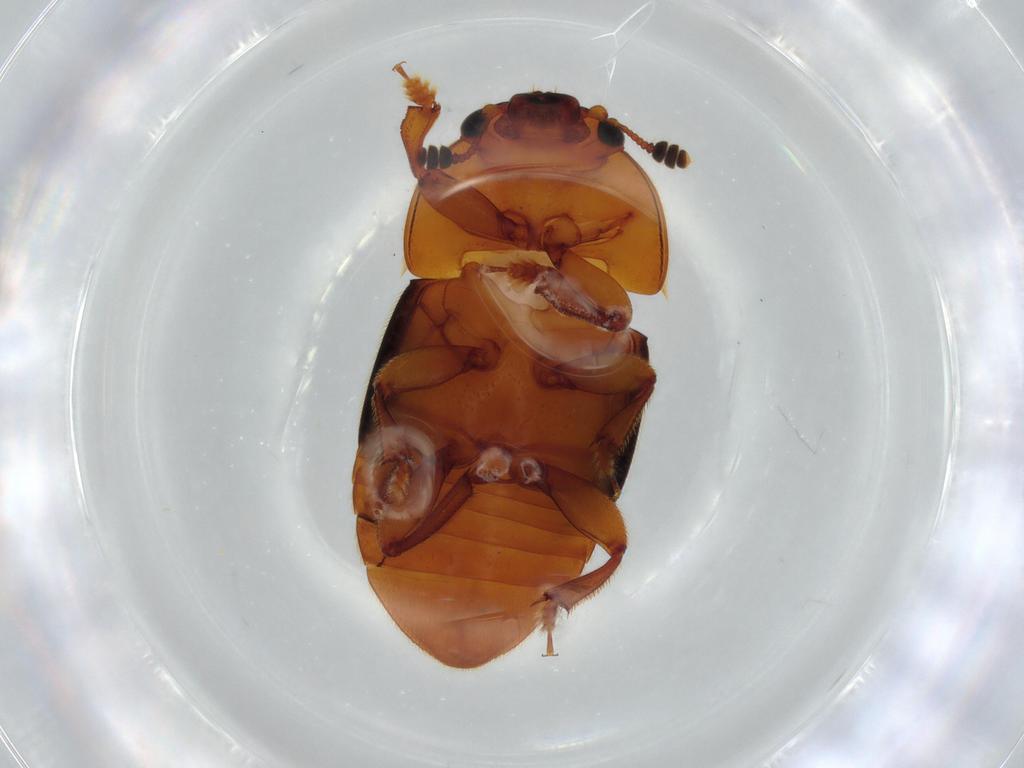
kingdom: Animalia
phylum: Arthropoda
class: Insecta
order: Coleoptera
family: Nitidulidae
